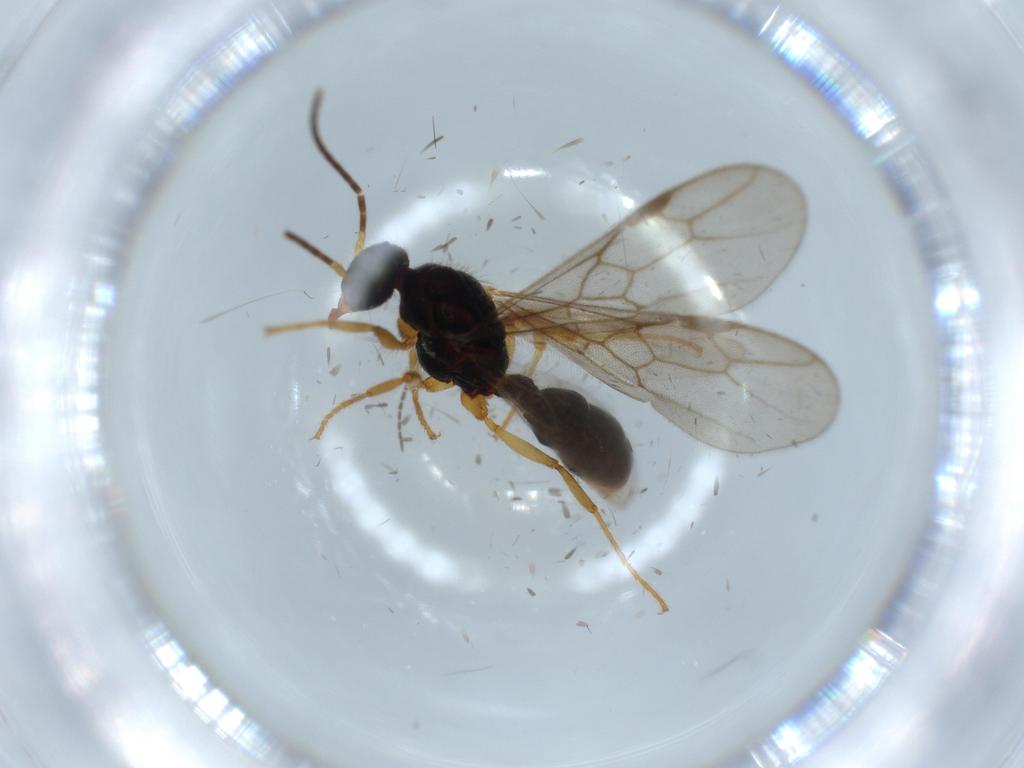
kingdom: Animalia
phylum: Arthropoda
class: Insecta
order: Hymenoptera
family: Formicidae
